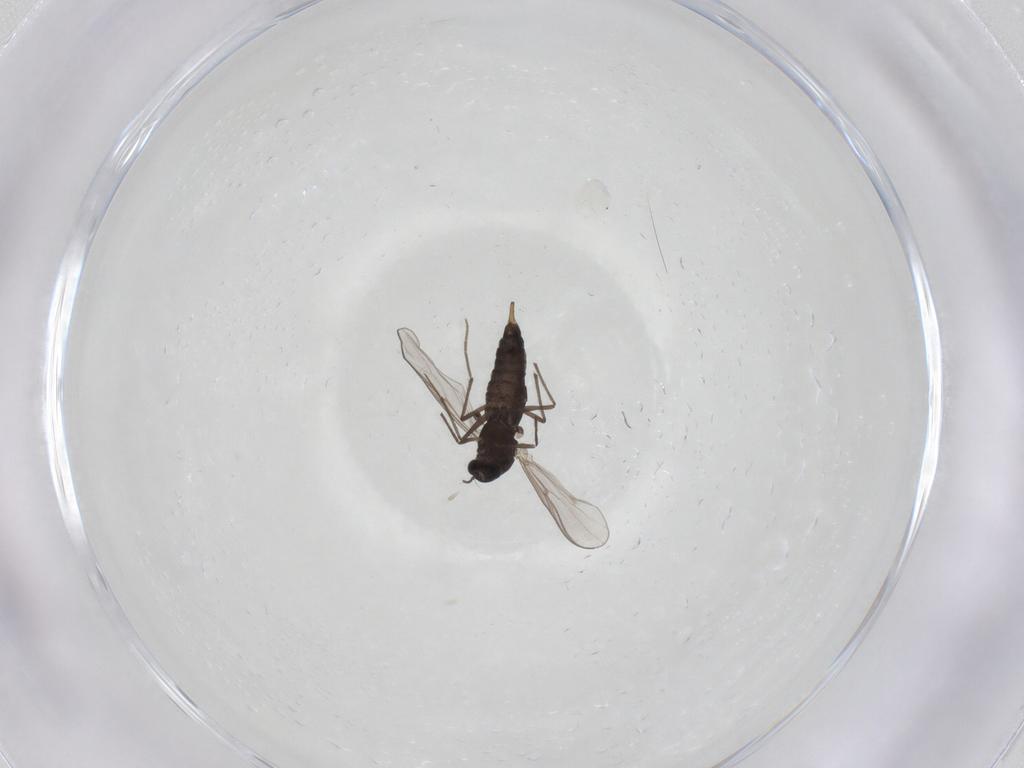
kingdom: Animalia
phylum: Arthropoda
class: Insecta
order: Diptera
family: Chironomidae
